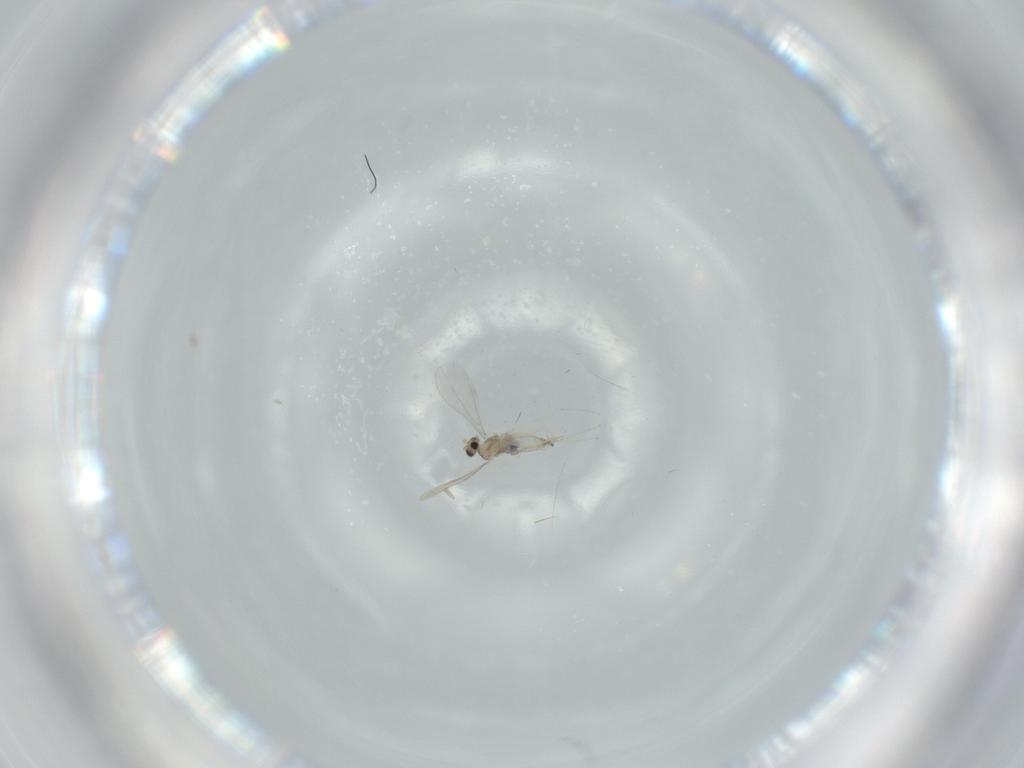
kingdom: Animalia
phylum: Arthropoda
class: Insecta
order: Diptera
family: Cecidomyiidae
